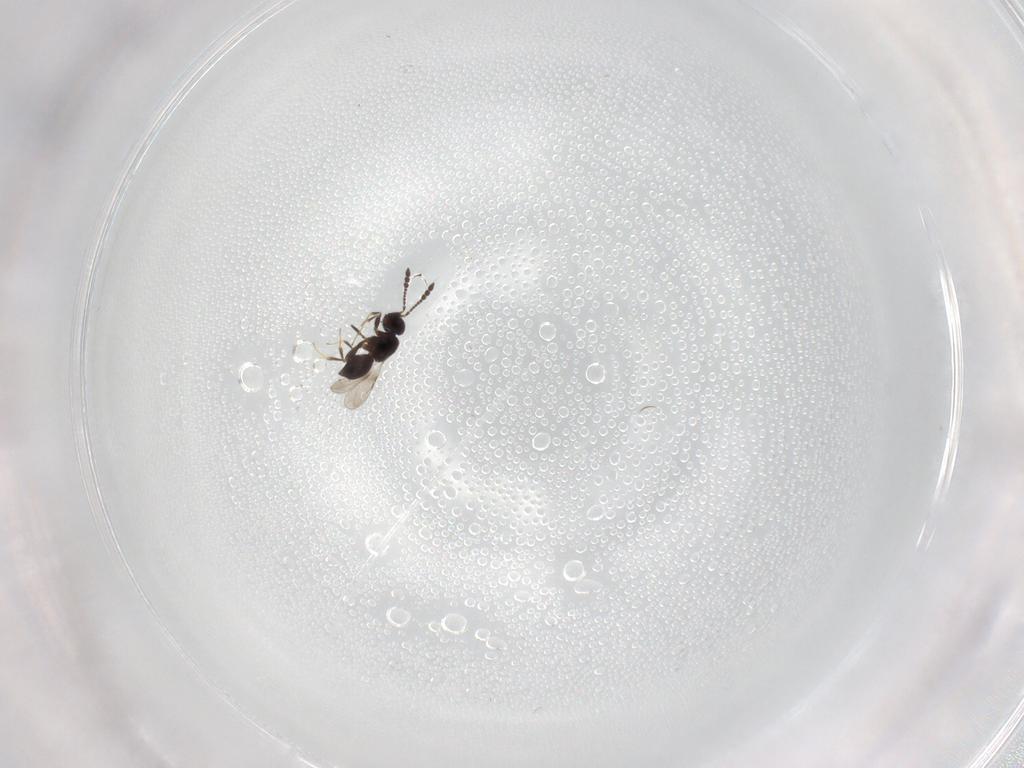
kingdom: Animalia
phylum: Arthropoda
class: Insecta
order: Hymenoptera
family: Scelionidae
